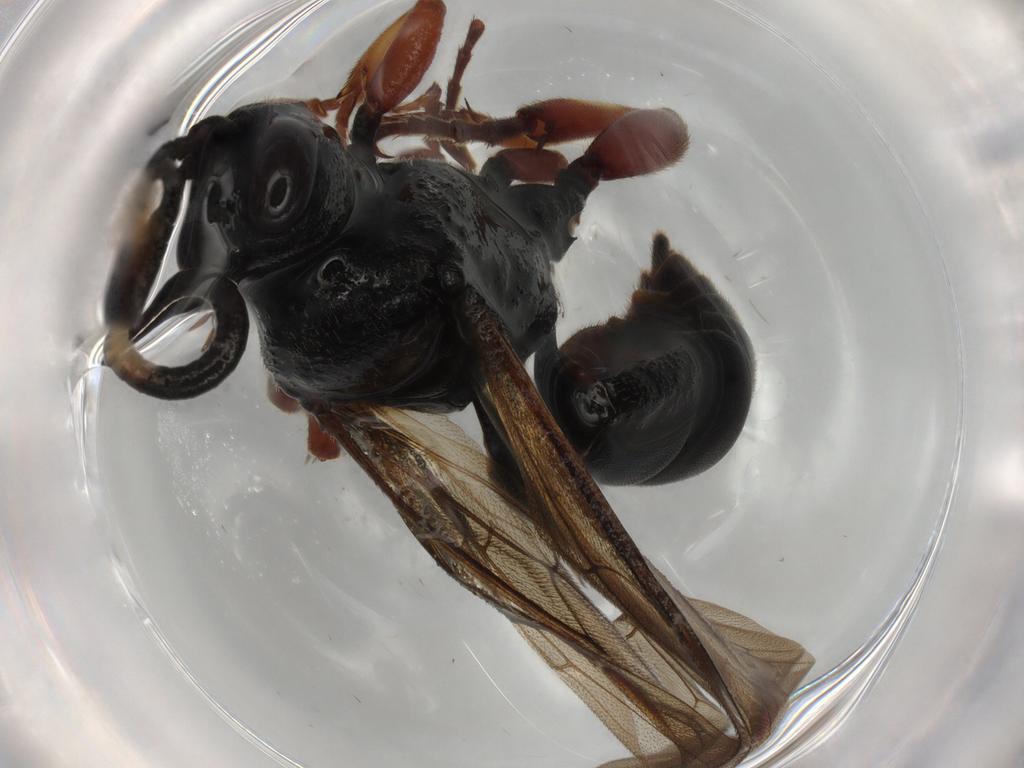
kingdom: Animalia
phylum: Arthropoda
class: Insecta
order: Hymenoptera
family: Ichneumonidae
